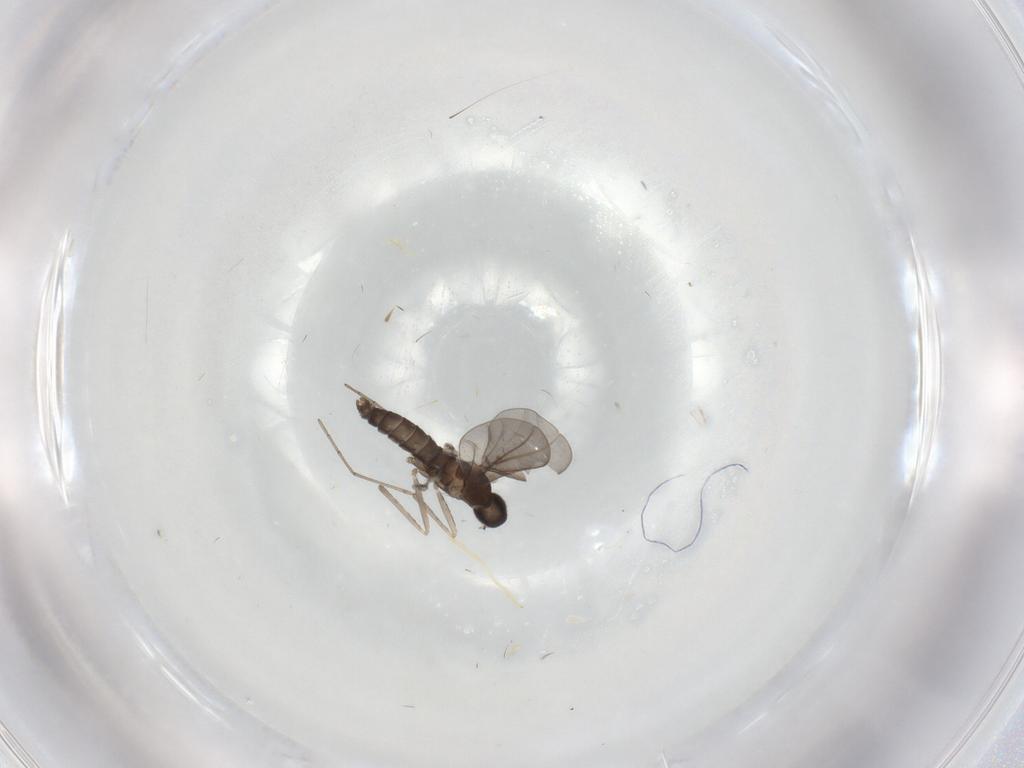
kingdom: Animalia
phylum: Arthropoda
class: Insecta
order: Diptera
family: Cecidomyiidae
